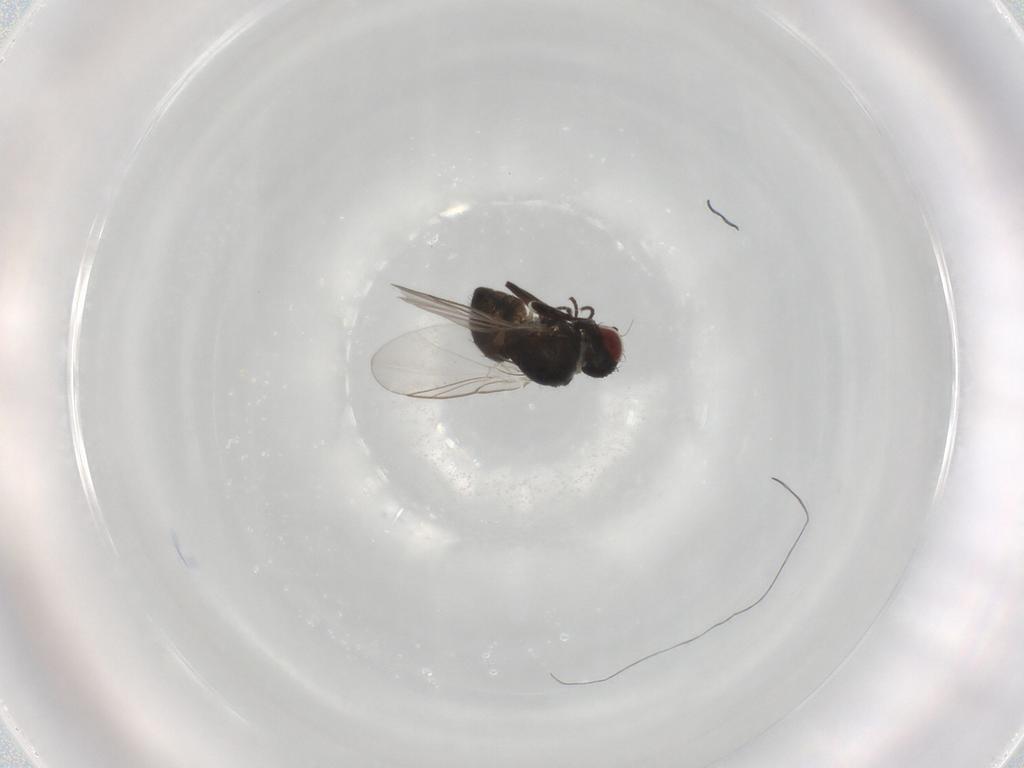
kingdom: Animalia
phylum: Arthropoda
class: Insecta
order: Diptera
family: Agromyzidae
